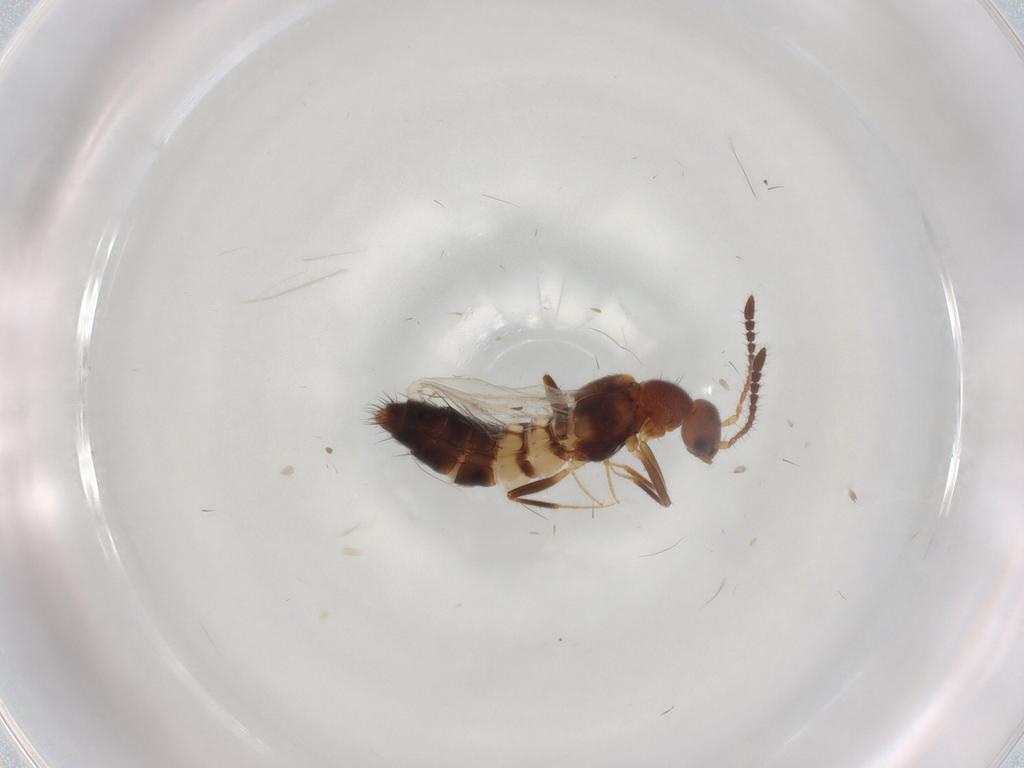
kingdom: Animalia
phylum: Arthropoda
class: Insecta
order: Coleoptera
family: Staphylinidae
